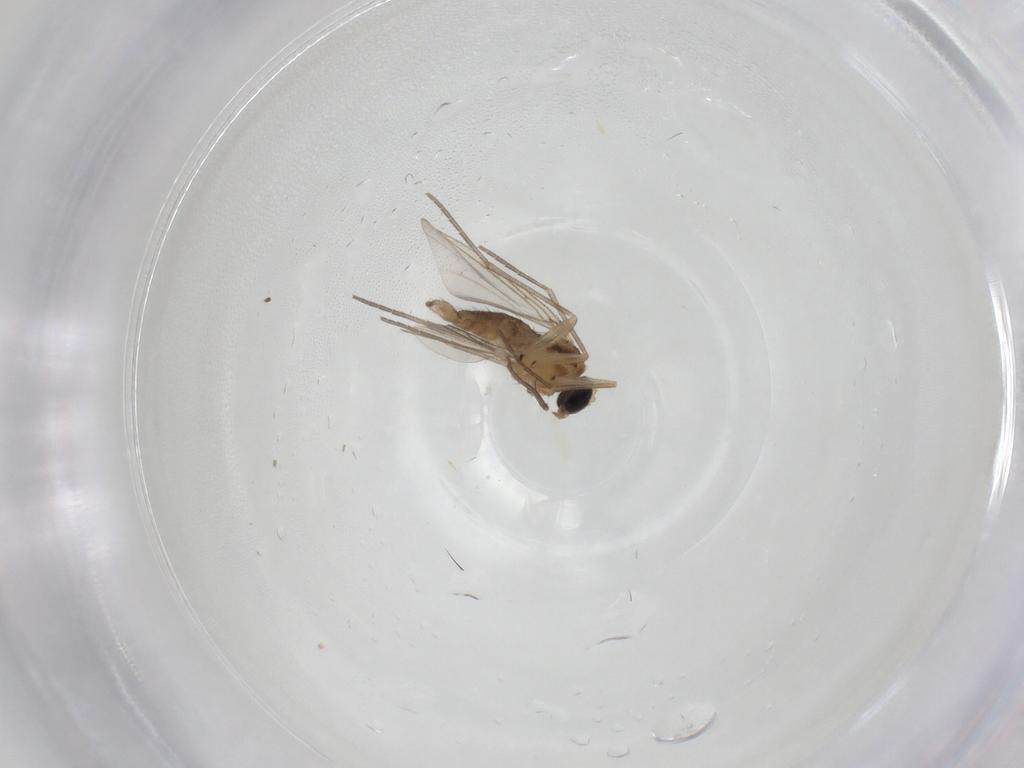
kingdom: Animalia
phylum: Arthropoda
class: Insecta
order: Diptera
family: Sciaridae
